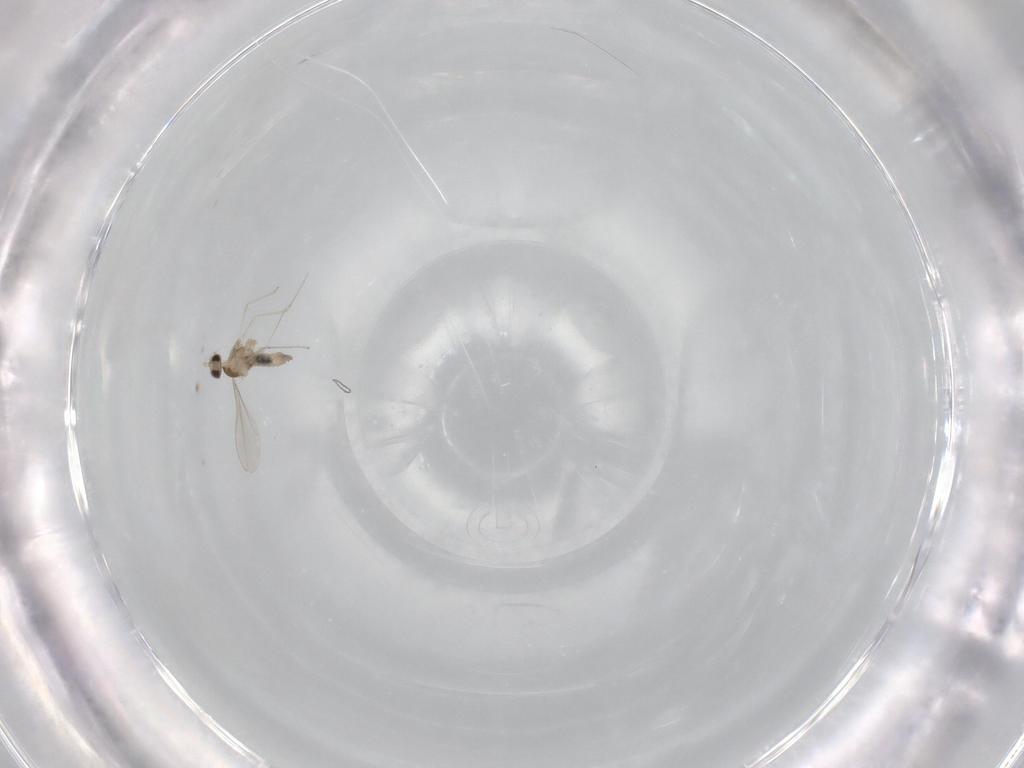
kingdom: Animalia
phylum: Arthropoda
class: Insecta
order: Diptera
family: Cecidomyiidae
